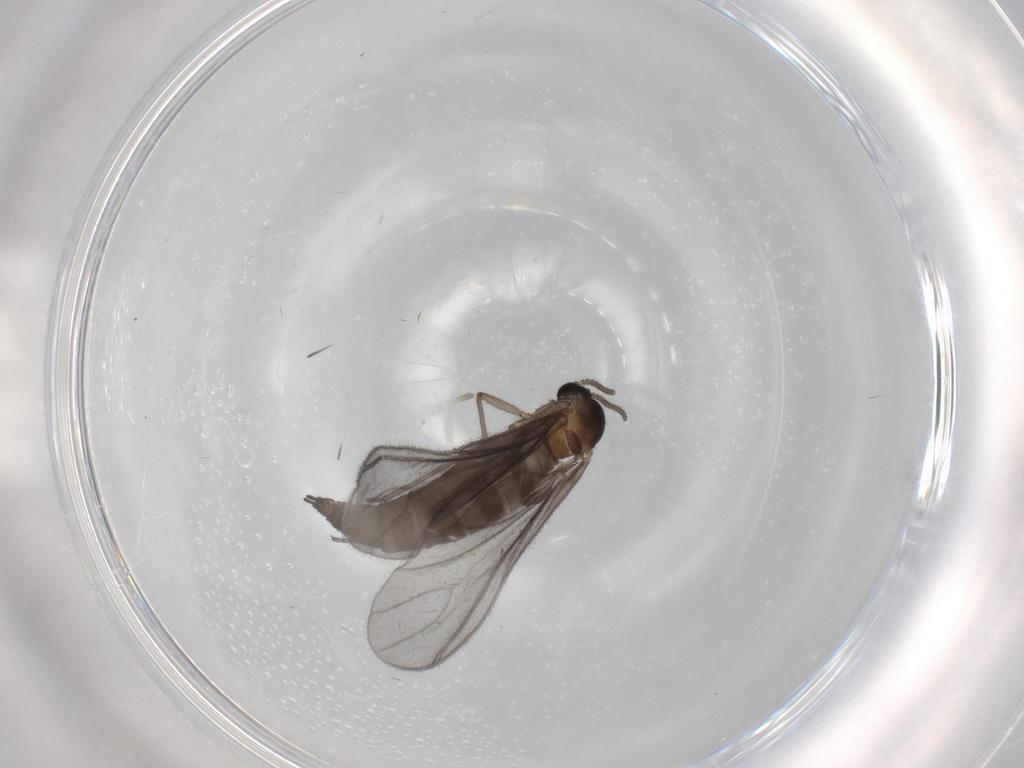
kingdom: Animalia
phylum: Arthropoda
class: Insecta
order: Diptera
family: Sciaridae
